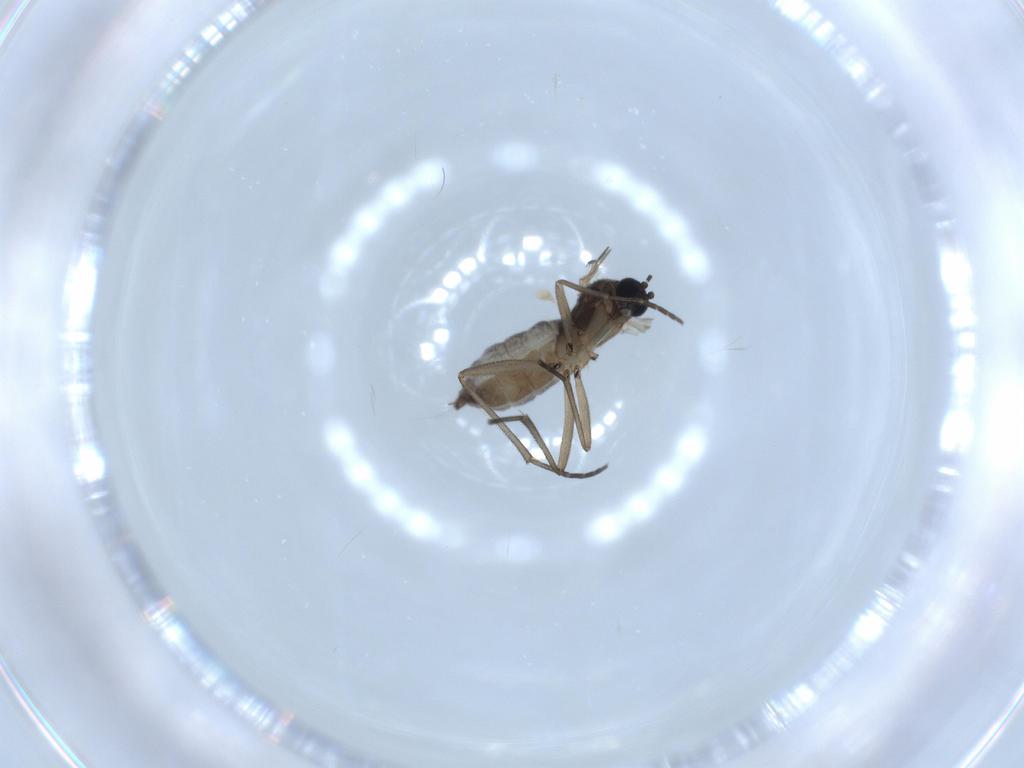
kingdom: Animalia
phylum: Arthropoda
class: Insecta
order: Diptera
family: Sciaridae
